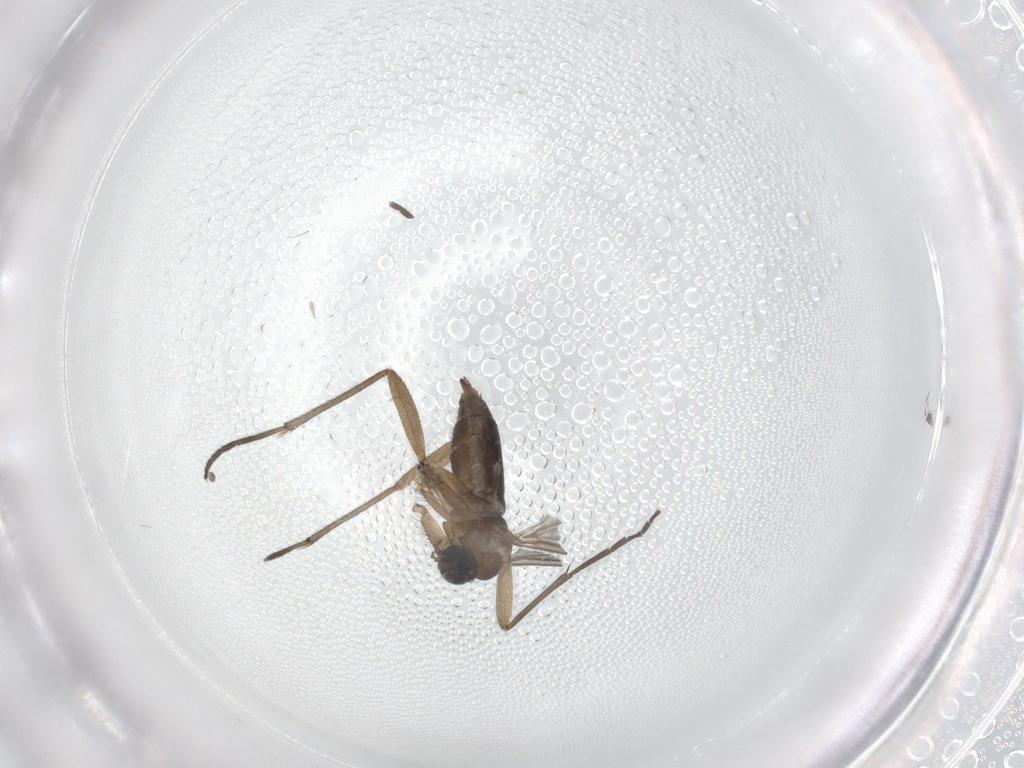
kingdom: Animalia
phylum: Arthropoda
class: Insecta
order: Diptera
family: Sciaridae
